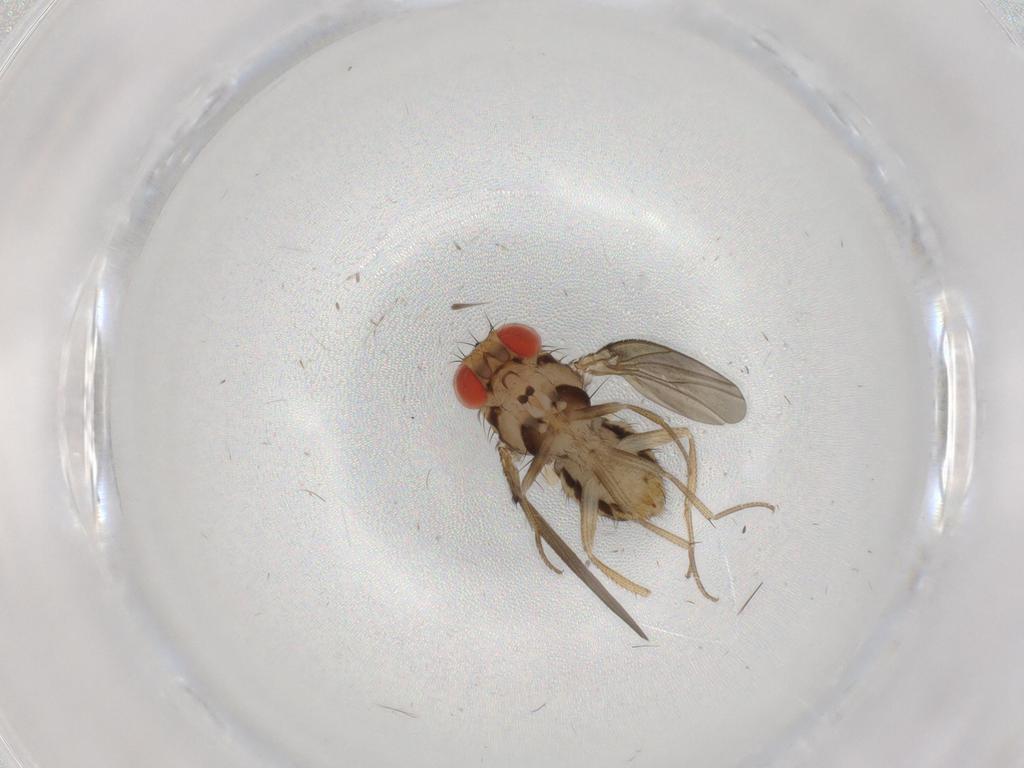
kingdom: Animalia
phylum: Arthropoda
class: Insecta
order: Diptera
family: Drosophilidae
